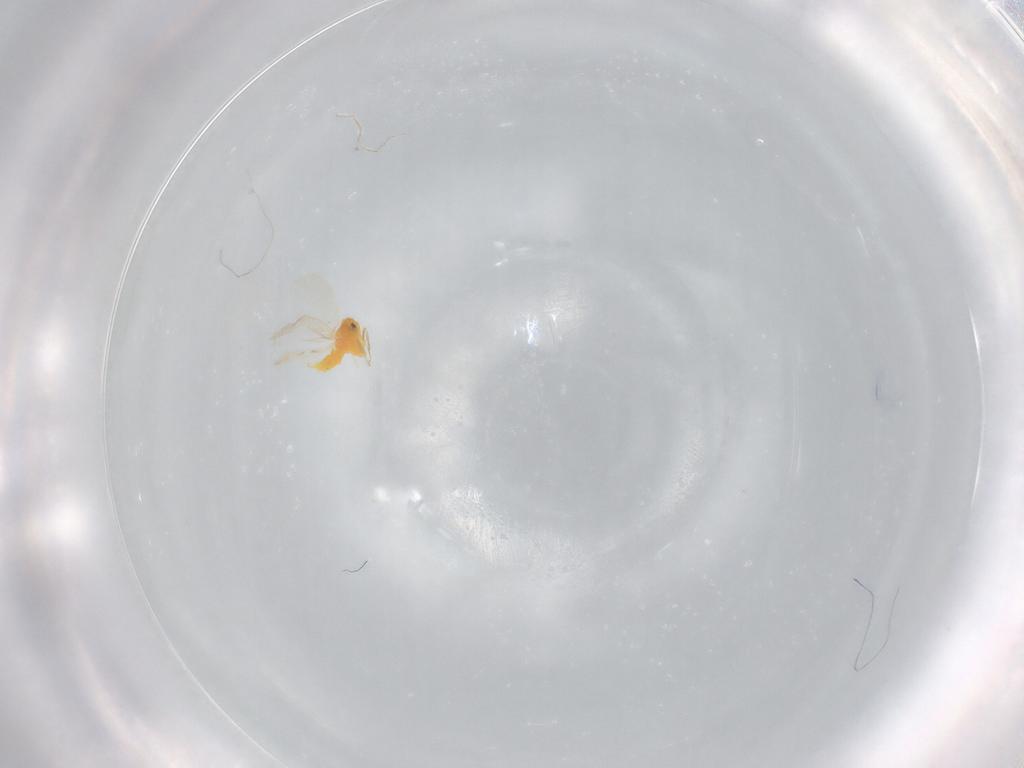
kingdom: Animalia
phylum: Arthropoda
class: Insecta
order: Hemiptera
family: Aleyrodidae
